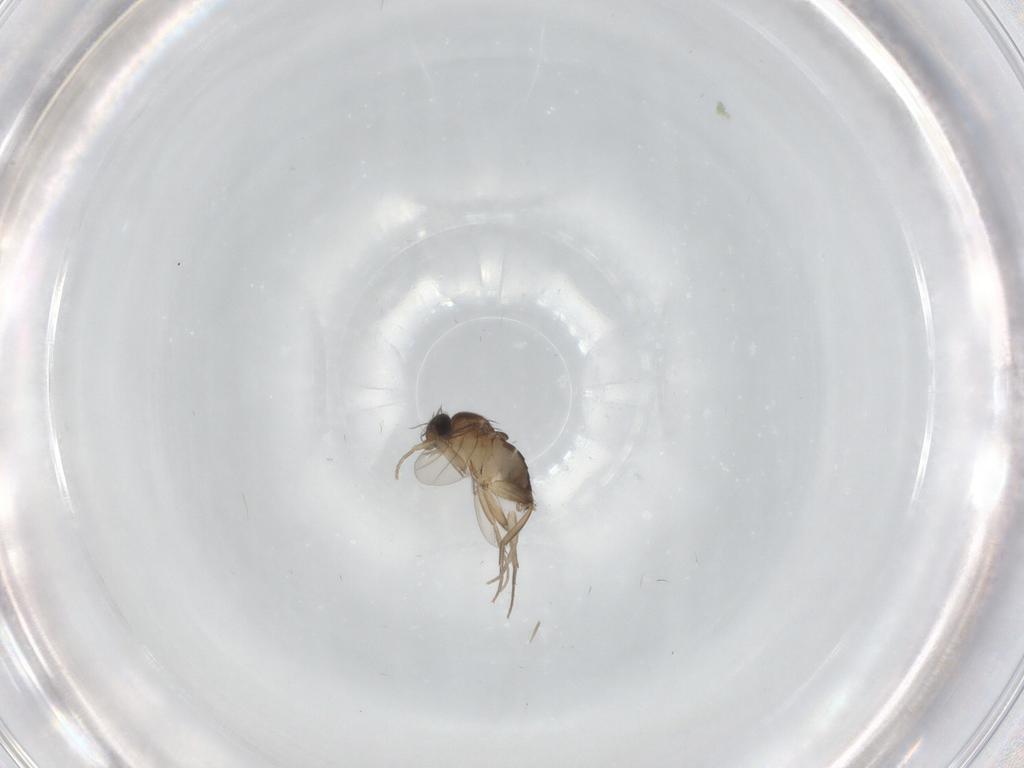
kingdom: Animalia
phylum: Arthropoda
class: Insecta
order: Diptera
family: Phoridae
